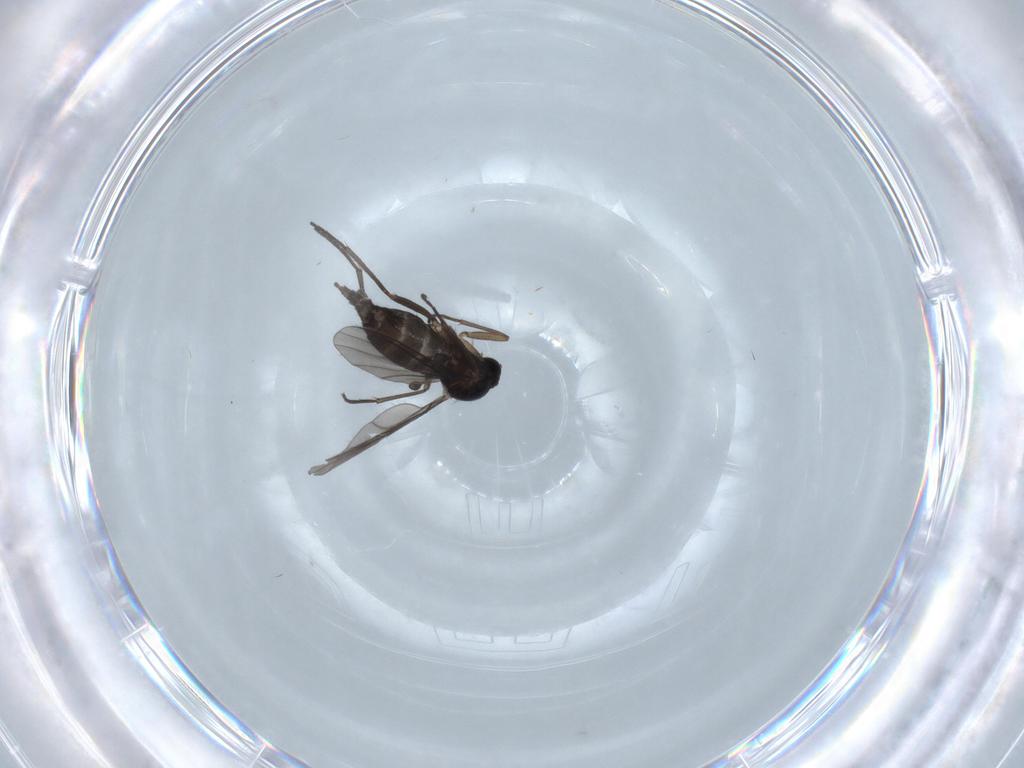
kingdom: Animalia
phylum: Arthropoda
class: Insecta
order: Diptera
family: Sciaridae
